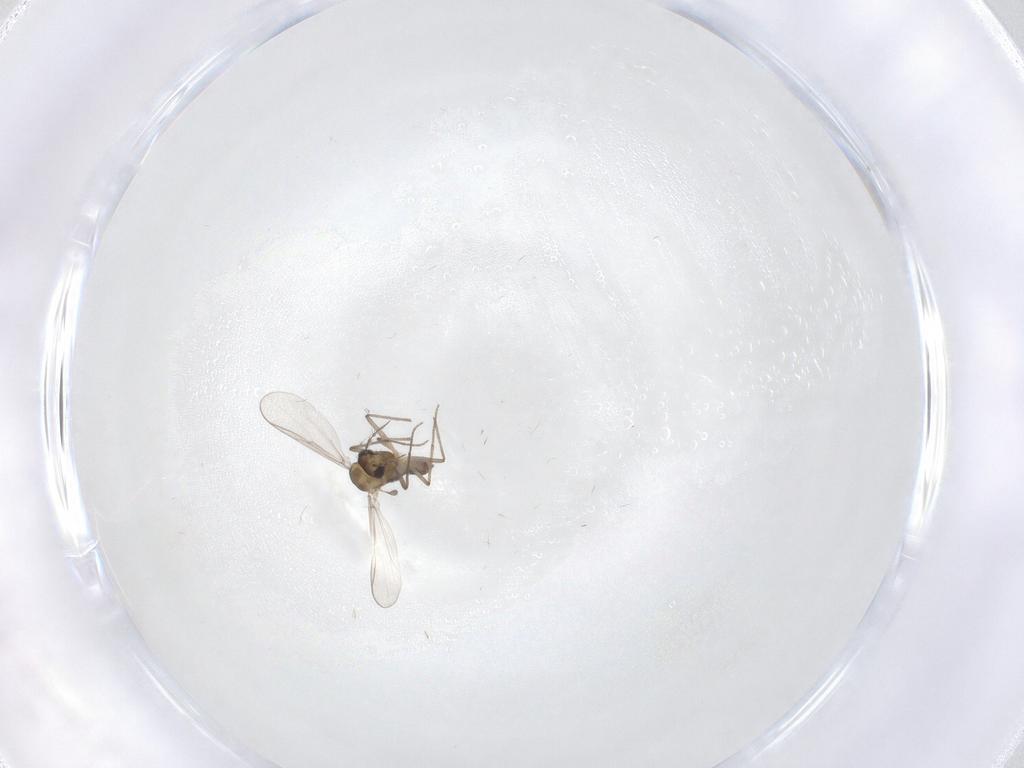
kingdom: Animalia
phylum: Arthropoda
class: Insecta
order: Diptera
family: Chironomidae
